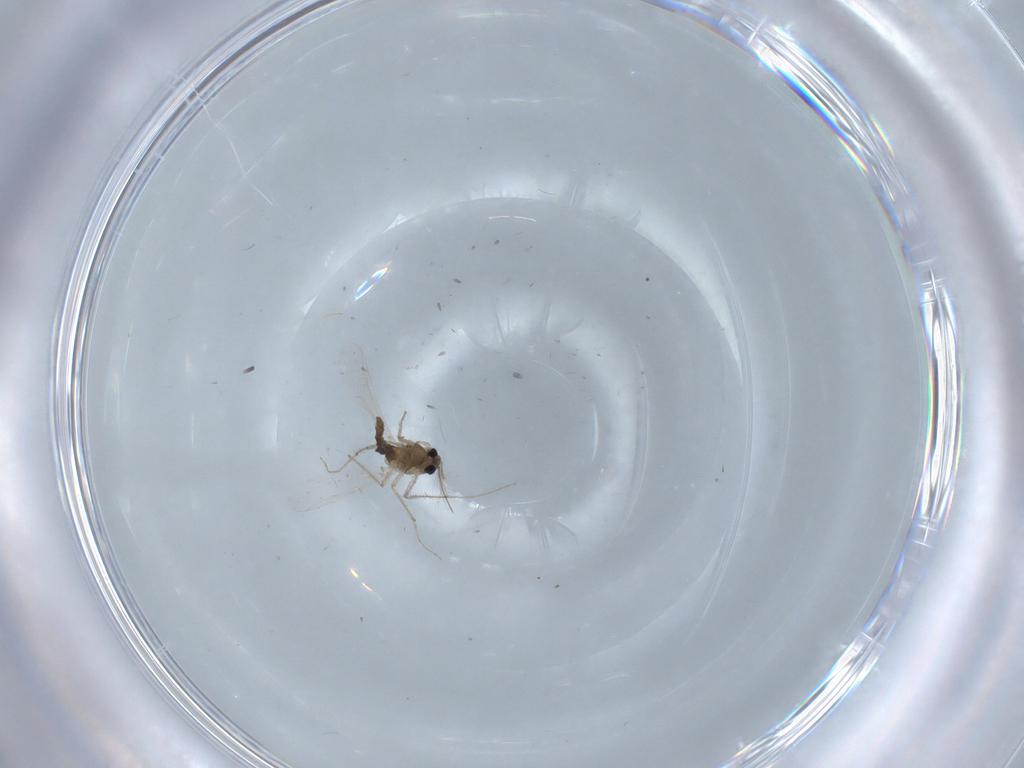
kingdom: Animalia
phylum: Arthropoda
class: Insecta
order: Diptera
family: Chironomidae
